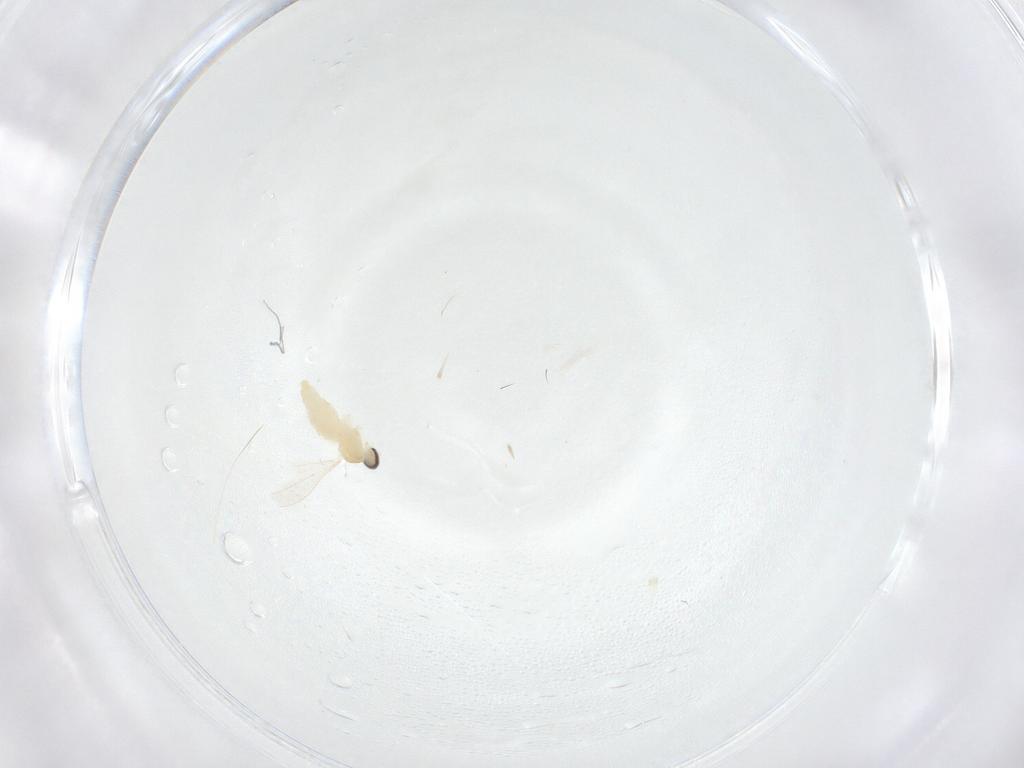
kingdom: Animalia
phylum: Arthropoda
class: Insecta
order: Diptera
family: Cecidomyiidae
